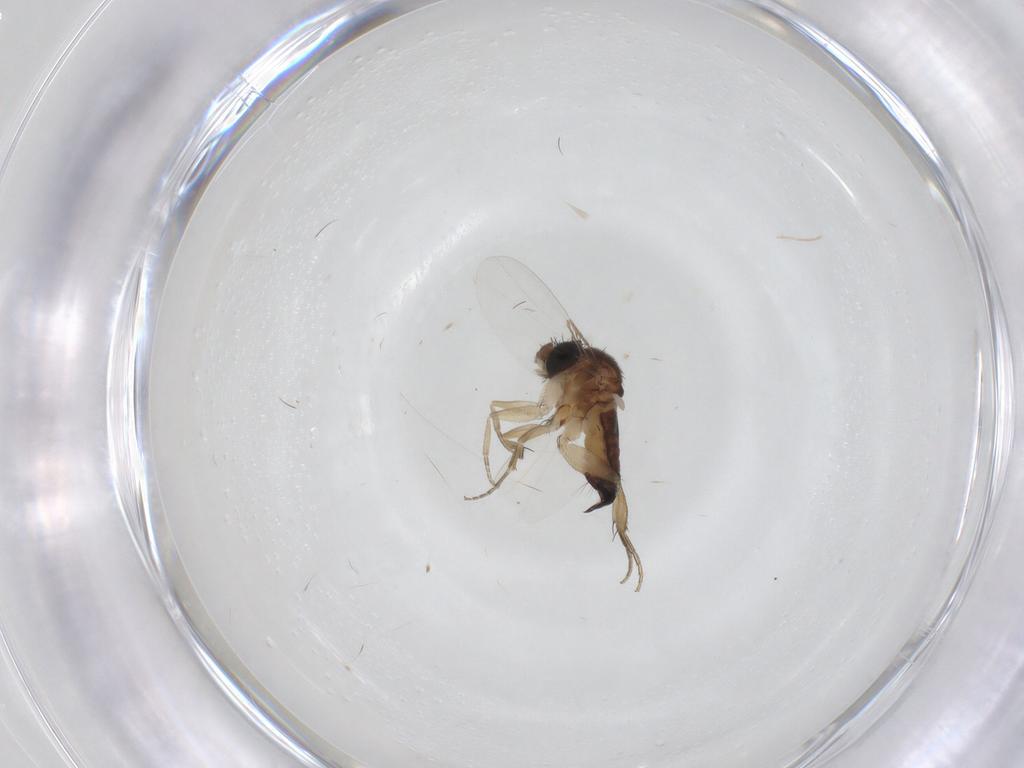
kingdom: Animalia
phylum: Arthropoda
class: Insecta
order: Diptera
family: Phoridae
